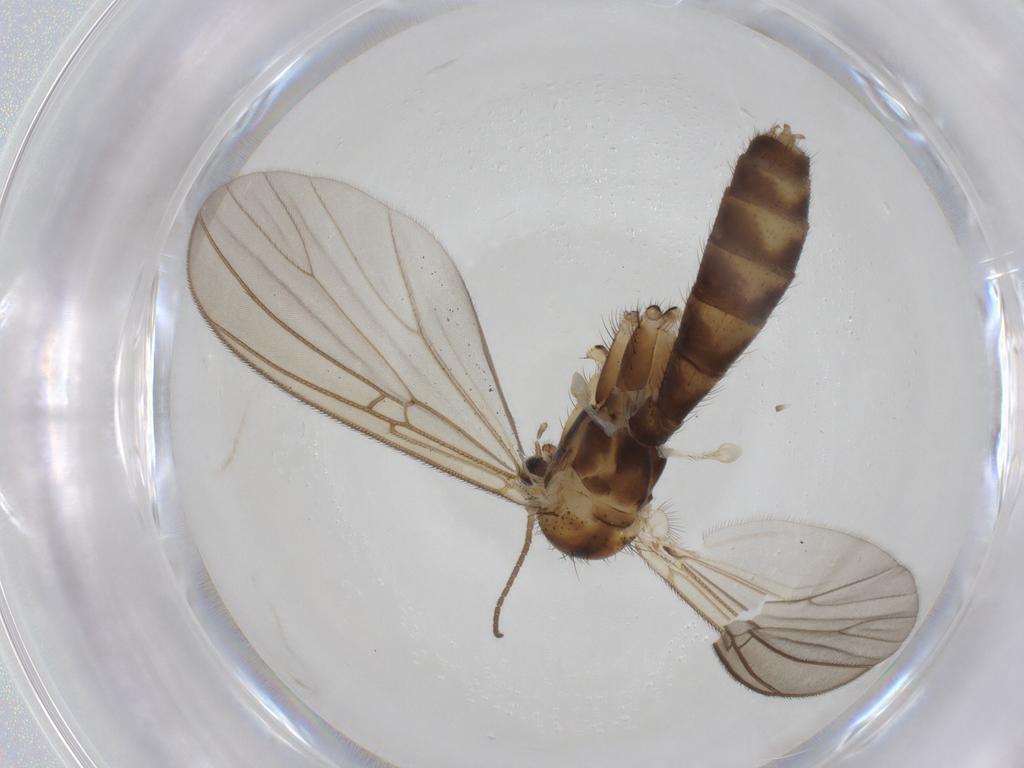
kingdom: Animalia
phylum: Arthropoda
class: Insecta
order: Diptera
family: Mycetophilidae
